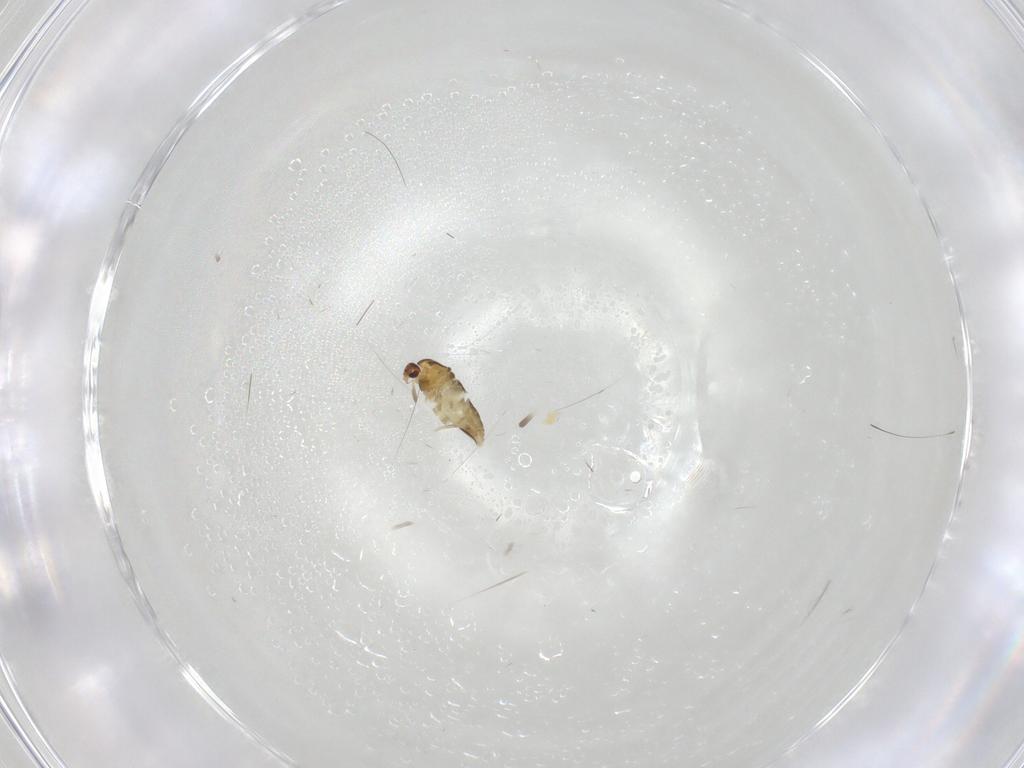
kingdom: Animalia
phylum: Arthropoda
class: Insecta
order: Diptera
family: Chironomidae
